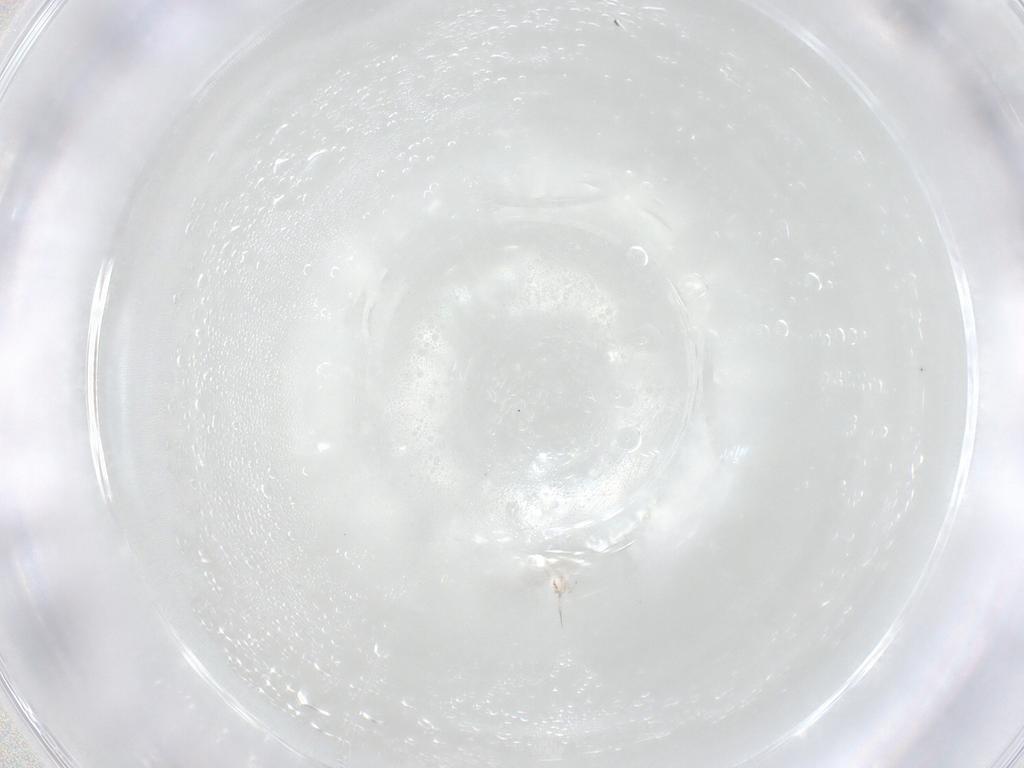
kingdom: Animalia
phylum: Arthropoda
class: Insecta
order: Thysanoptera
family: Thripidae
